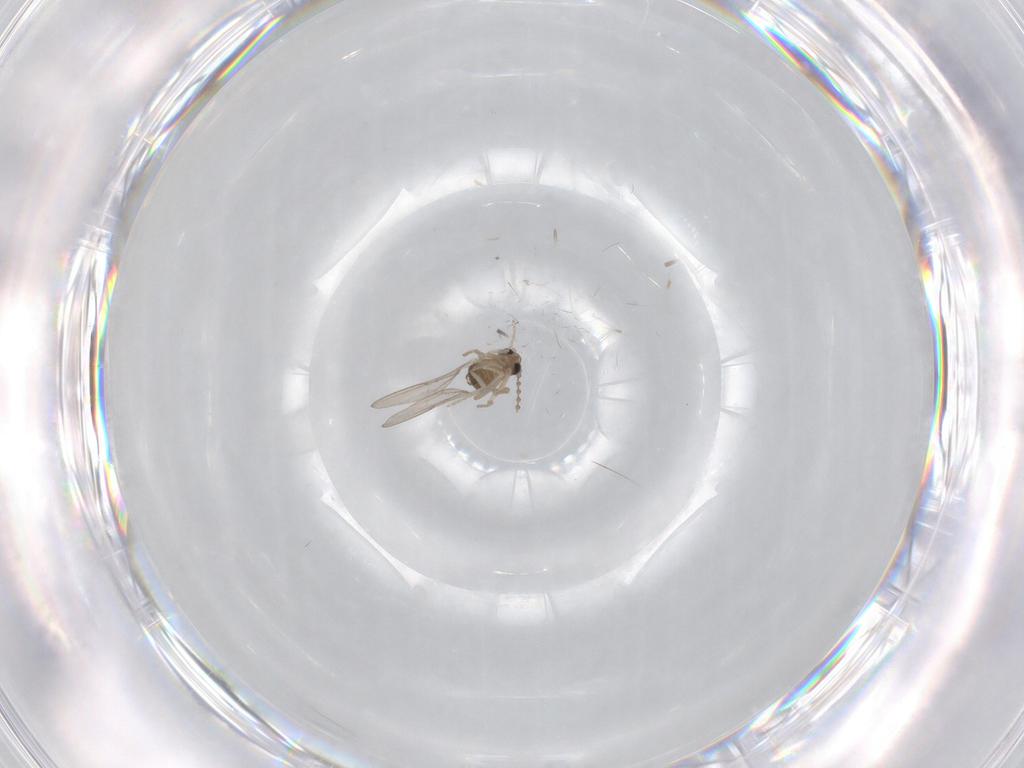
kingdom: Animalia
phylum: Arthropoda
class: Insecta
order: Diptera
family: Cecidomyiidae
